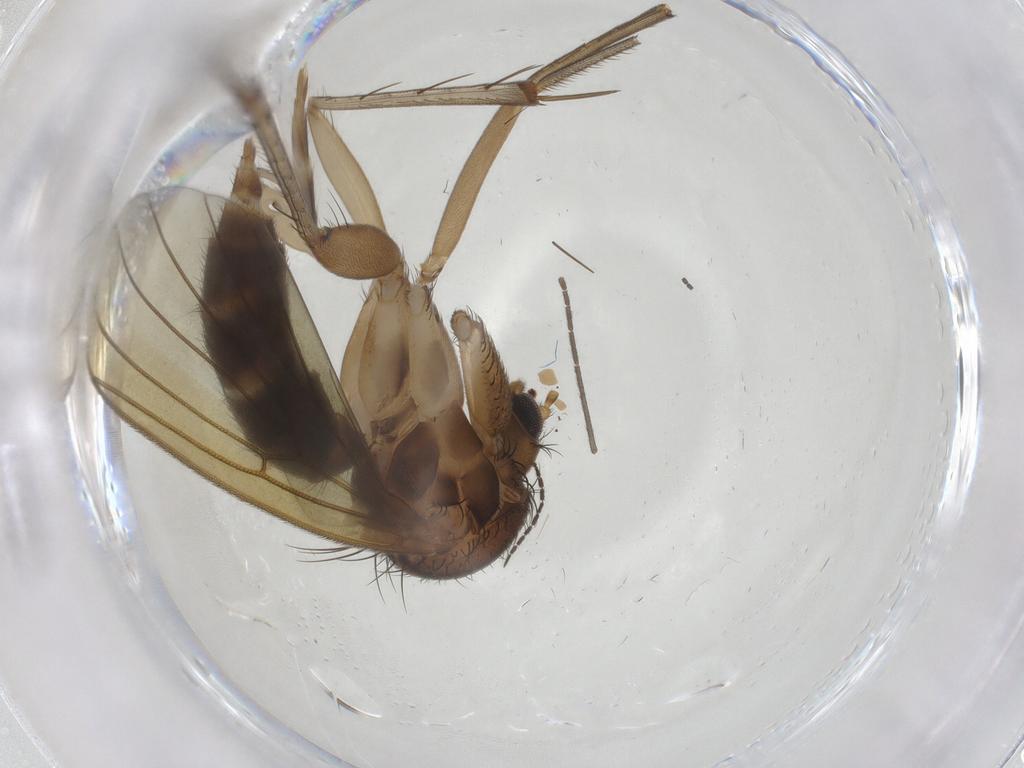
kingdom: Animalia
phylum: Arthropoda
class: Insecta
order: Diptera
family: Mycetophilidae
